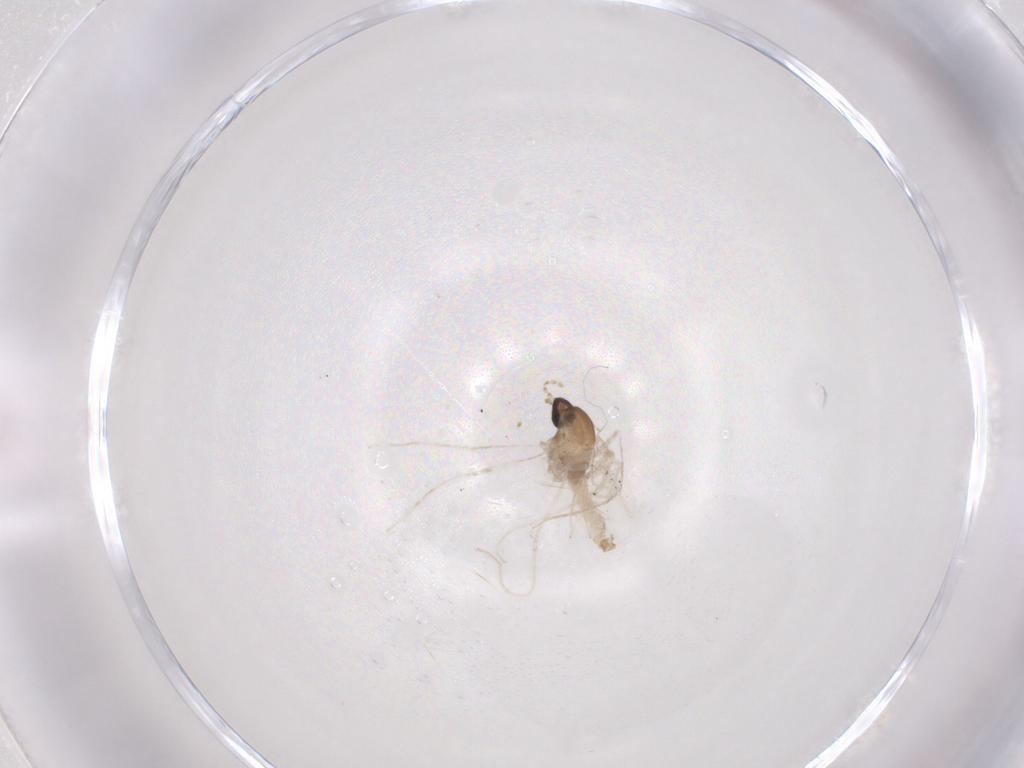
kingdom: Animalia
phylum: Arthropoda
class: Insecta
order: Diptera
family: Cecidomyiidae
